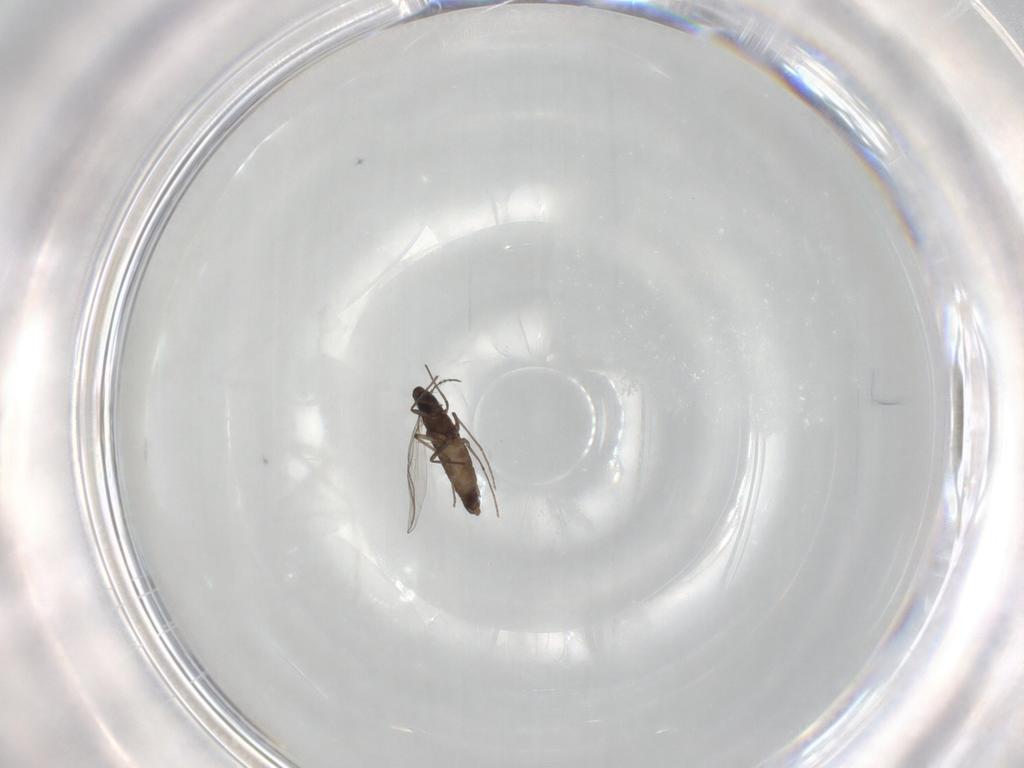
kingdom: Animalia
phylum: Arthropoda
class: Insecta
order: Diptera
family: Chironomidae
